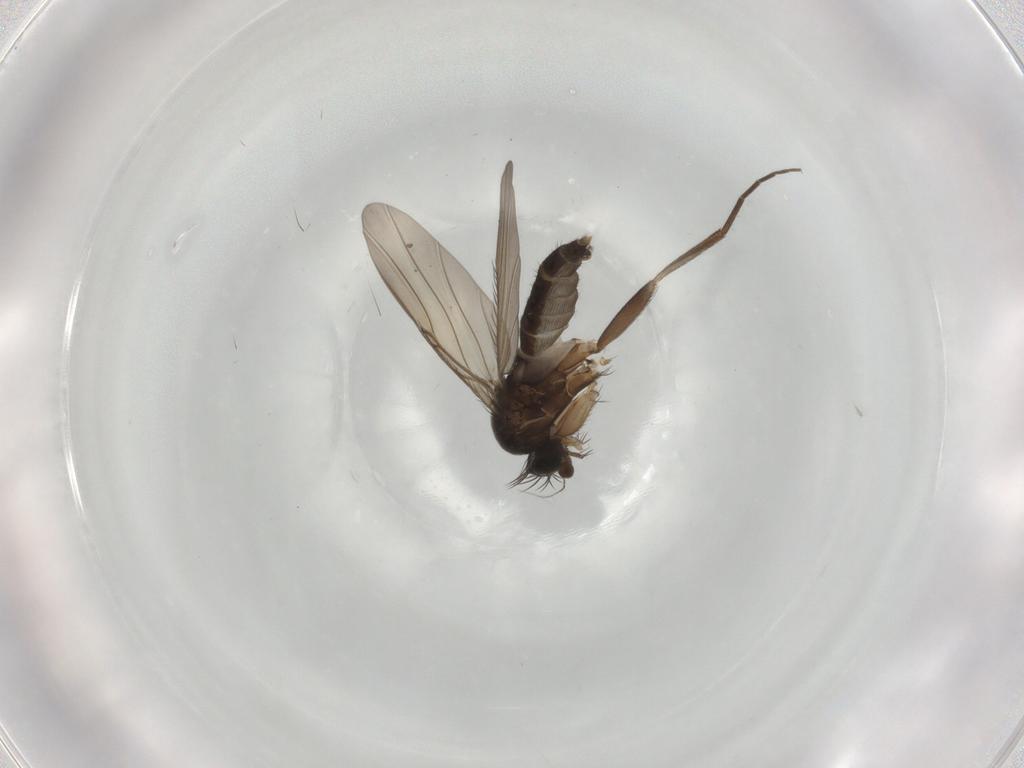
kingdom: Animalia
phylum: Arthropoda
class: Insecta
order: Diptera
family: Phoridae
